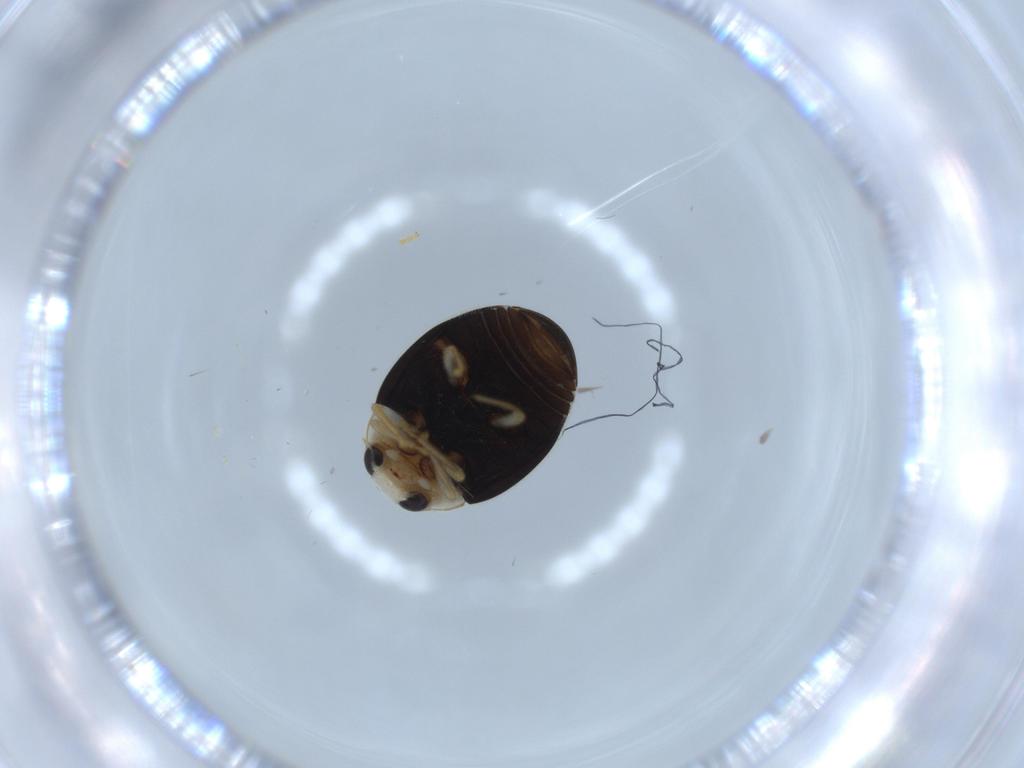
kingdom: Animalia
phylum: Arthropoda
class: Insecta
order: Coleoptera
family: Coccinellidae
